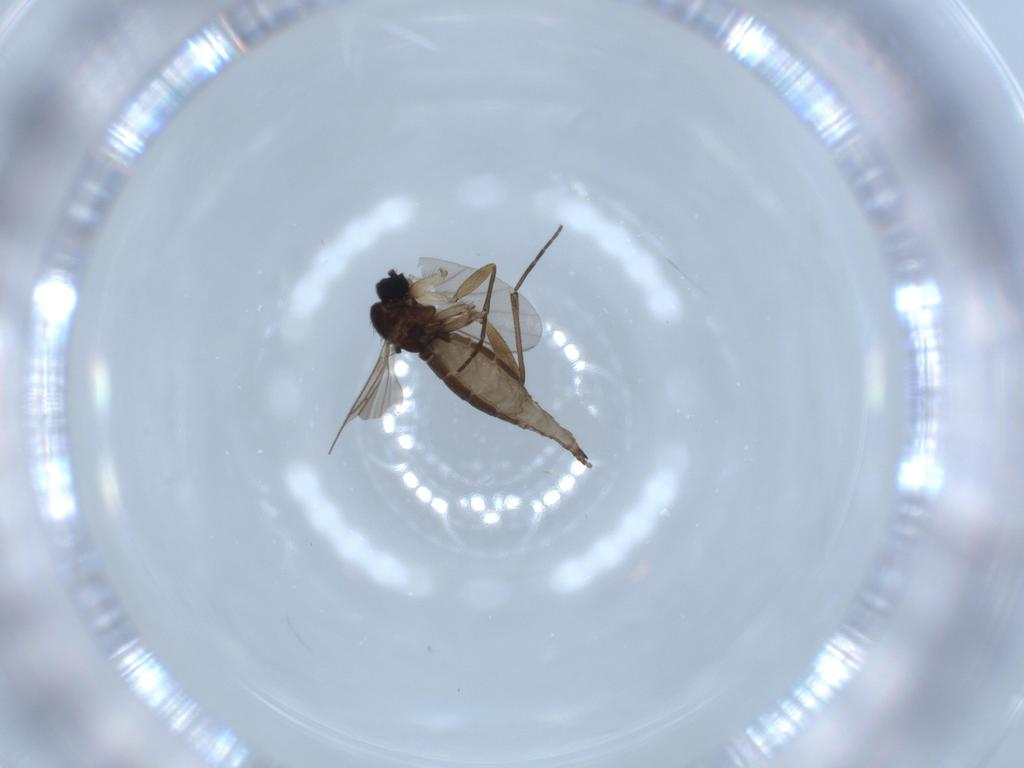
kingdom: Animalia
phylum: Arthropoda
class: Insecta
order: Diptera
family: Sciaridae
